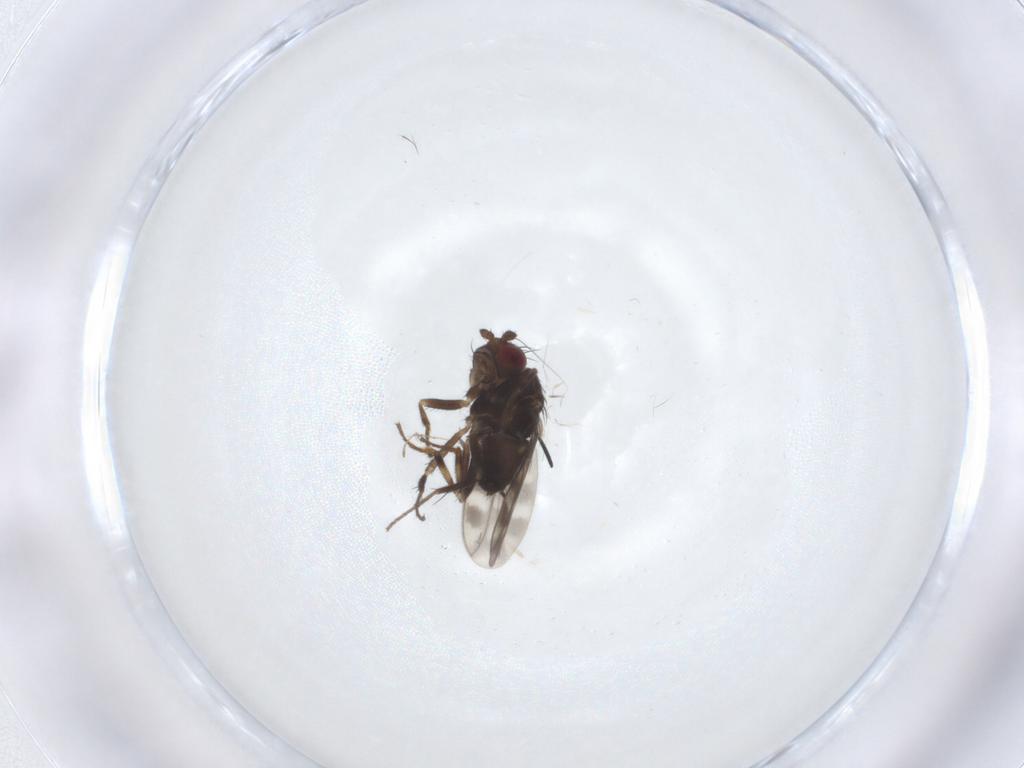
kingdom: Animalia
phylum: Arthropoda
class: Insecta
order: Diptera
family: Sphaeroceridae
